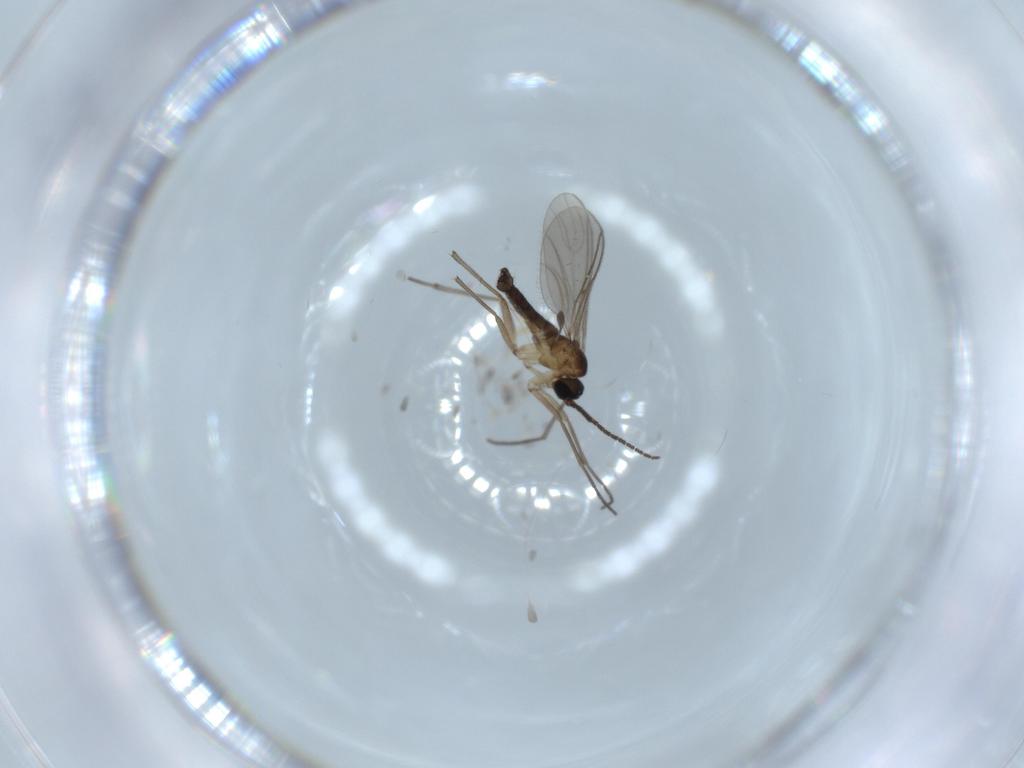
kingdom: Animalia
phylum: Arthropoda
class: Insecta
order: Diptera
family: Sciaridae
